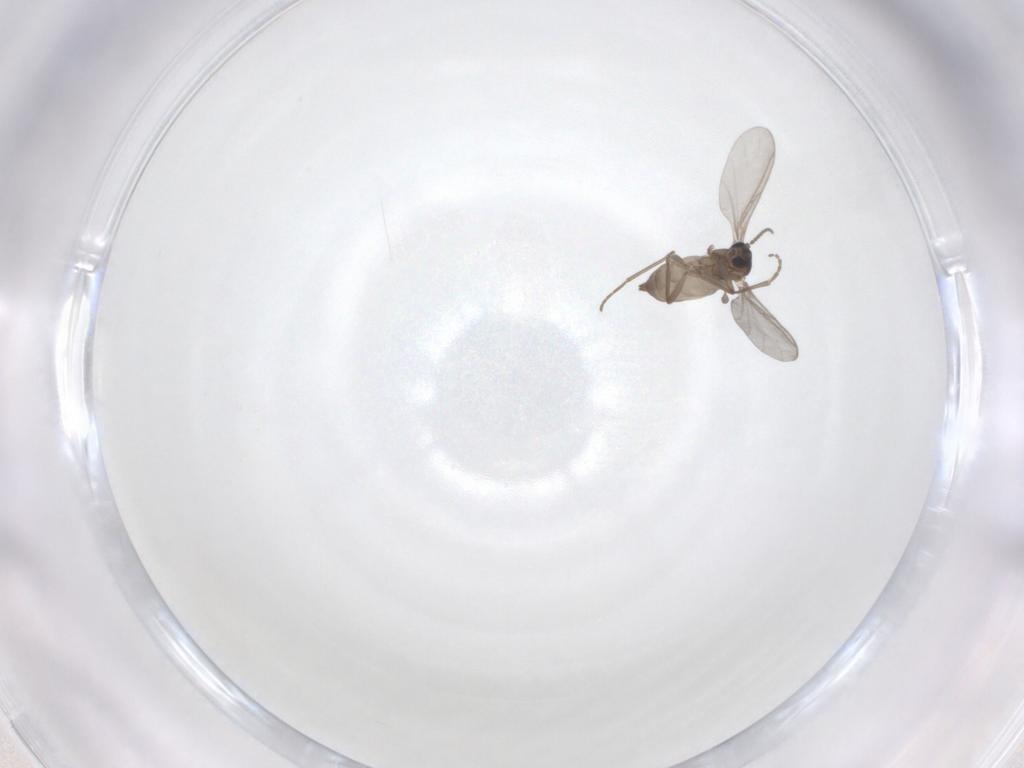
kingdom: Animalia
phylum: Arthropoda
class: Insecta
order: Diptera
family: Tachinidae
